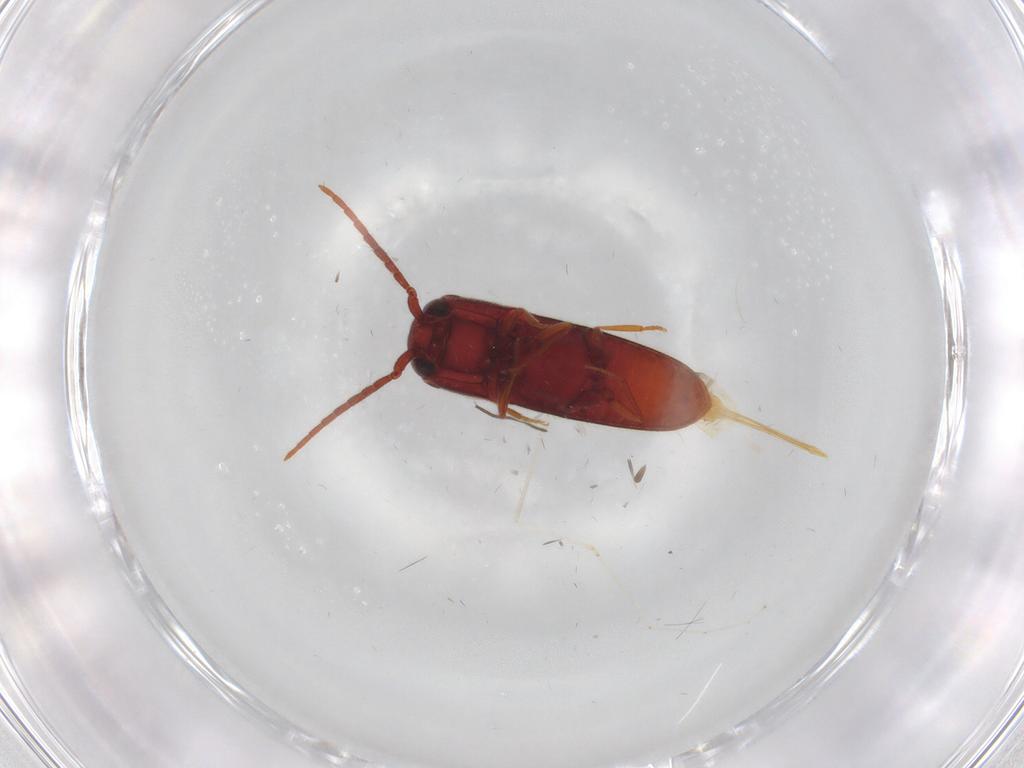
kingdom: Animalia
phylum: Arthropoda
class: Insecta
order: Coleoptera
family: Eucnemidae
